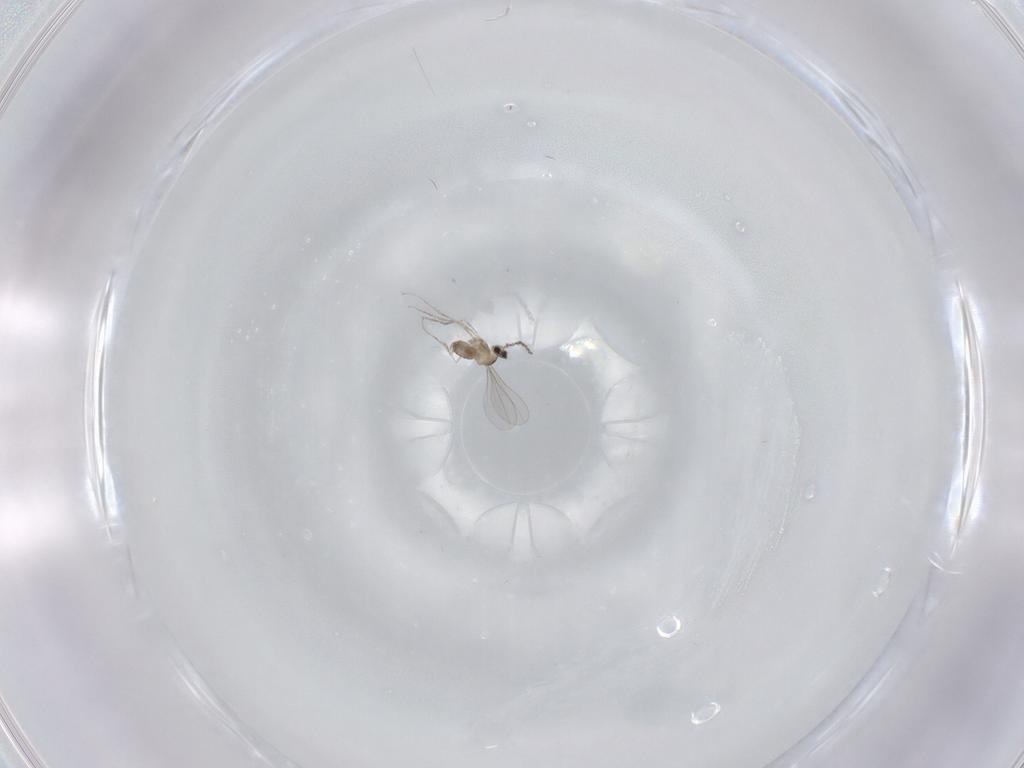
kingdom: Animalia
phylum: Arthropoda
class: Insecta
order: Diptera
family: Cecidomyiidae
